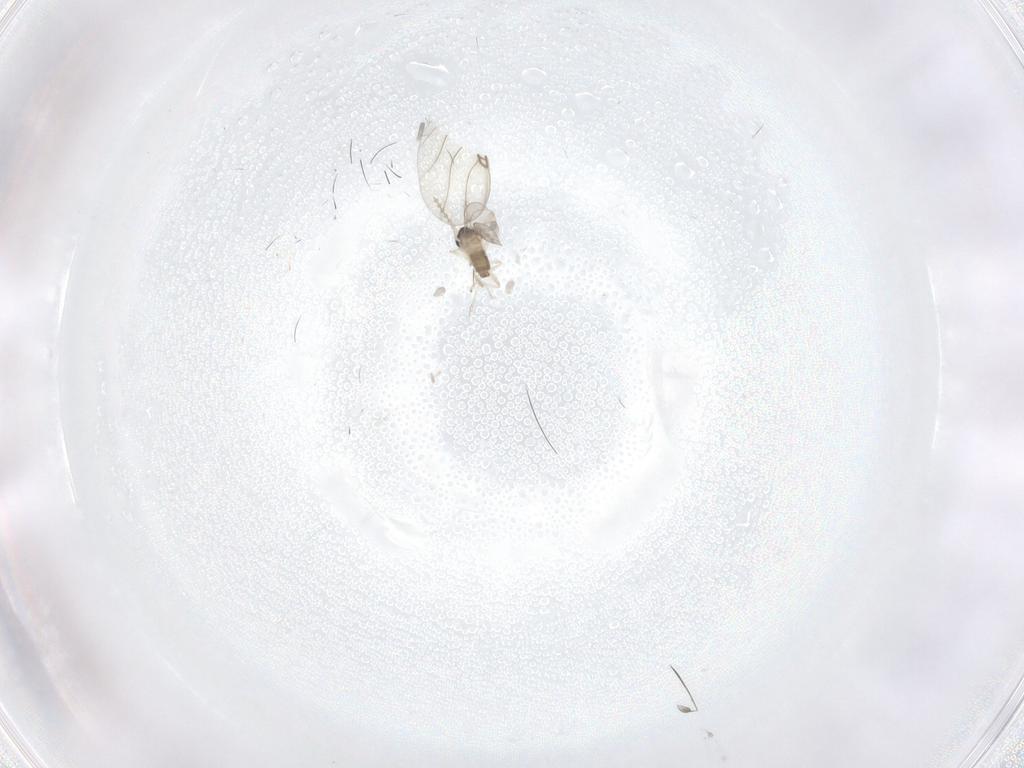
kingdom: Animalia
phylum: Arthropoda
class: Insecta
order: Diptera
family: Cecidomyiidae
